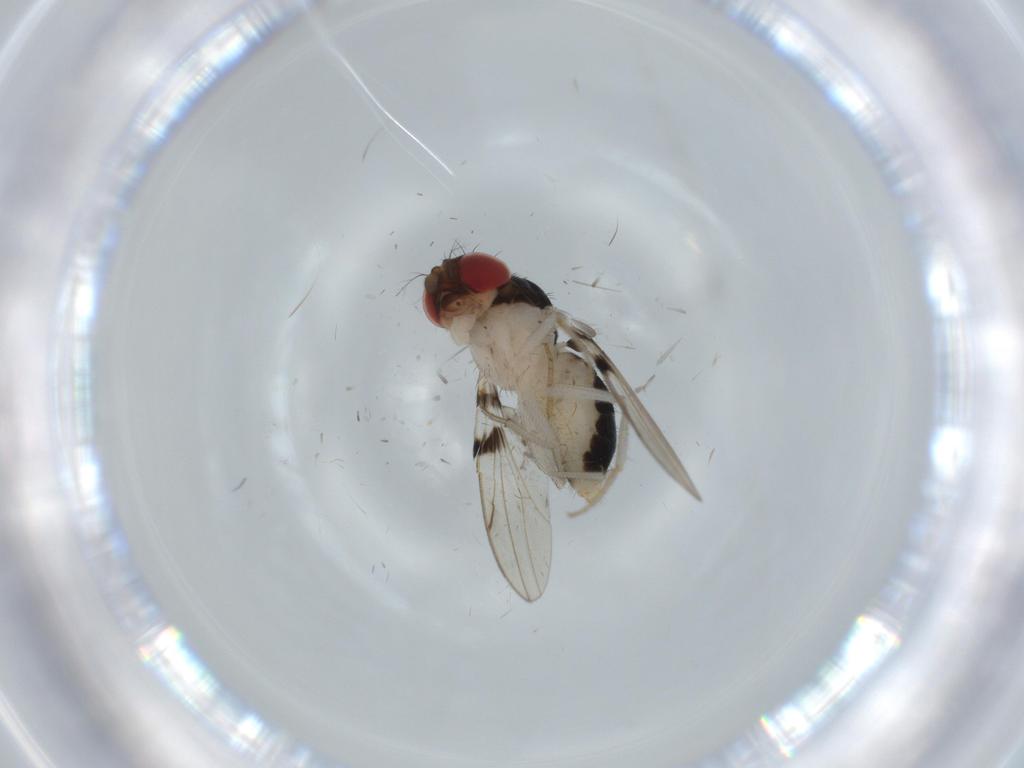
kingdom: Animalia
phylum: Arthropoda
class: Insecta
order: Diptera
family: Drosophilidae
